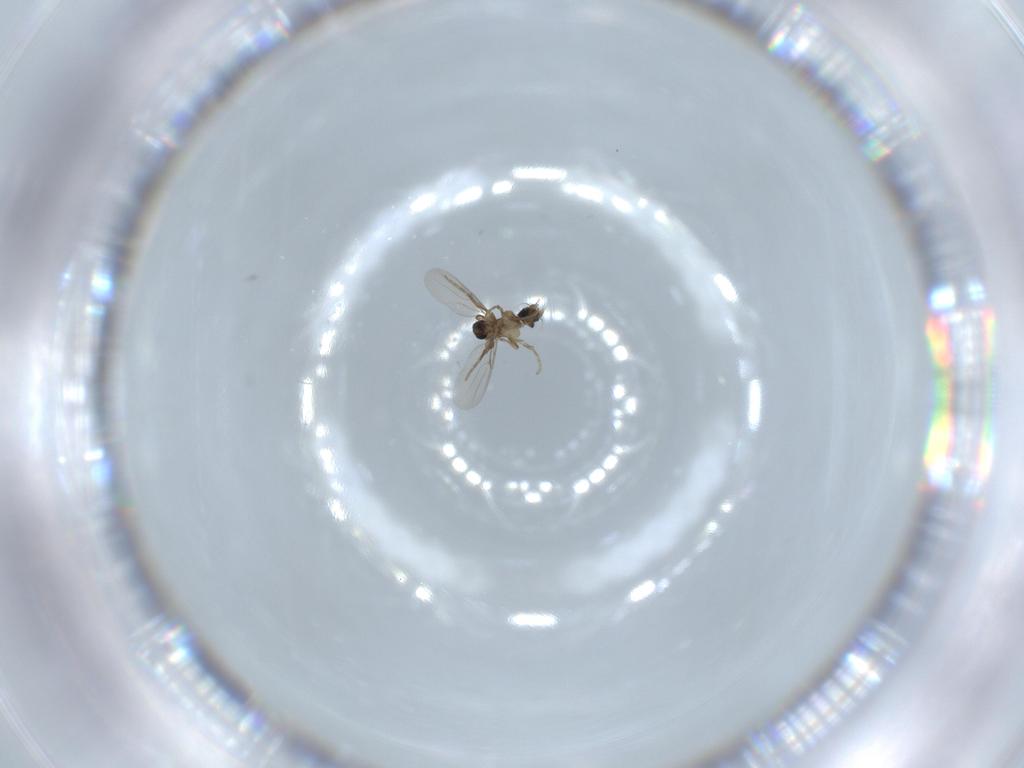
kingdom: Animalia
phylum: Arthropoda
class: Insecta
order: Diptera
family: Phoridae
